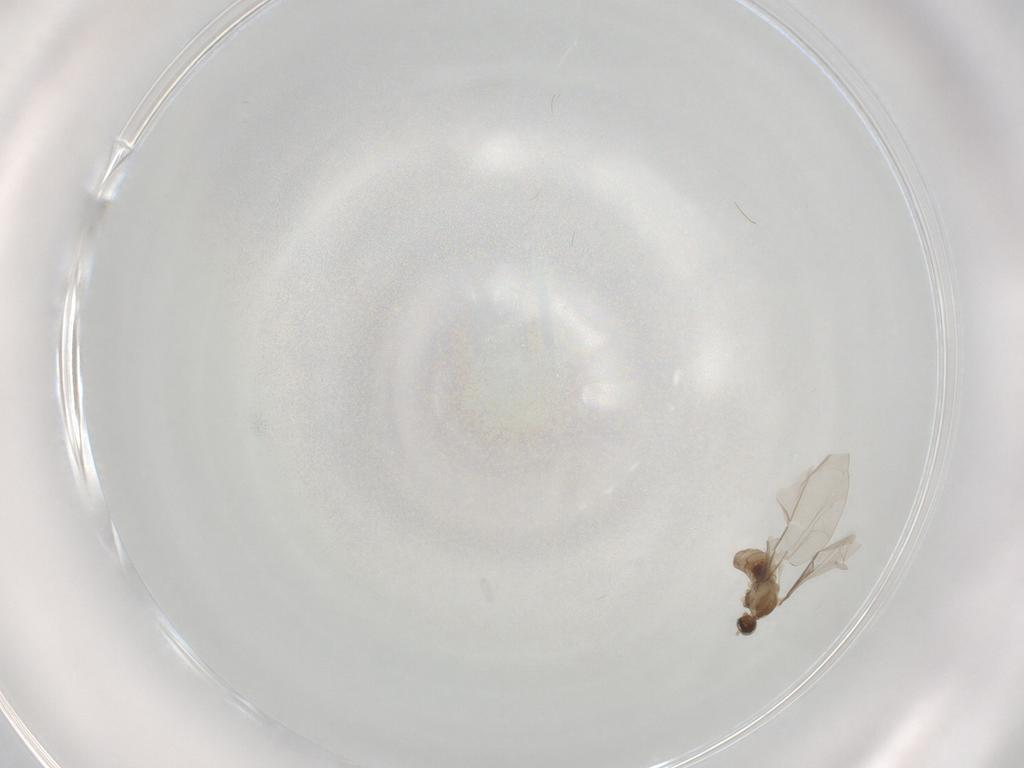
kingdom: Animalia
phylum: Arthropoda
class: Insecta
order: Diptera
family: Cecidomyiidae
